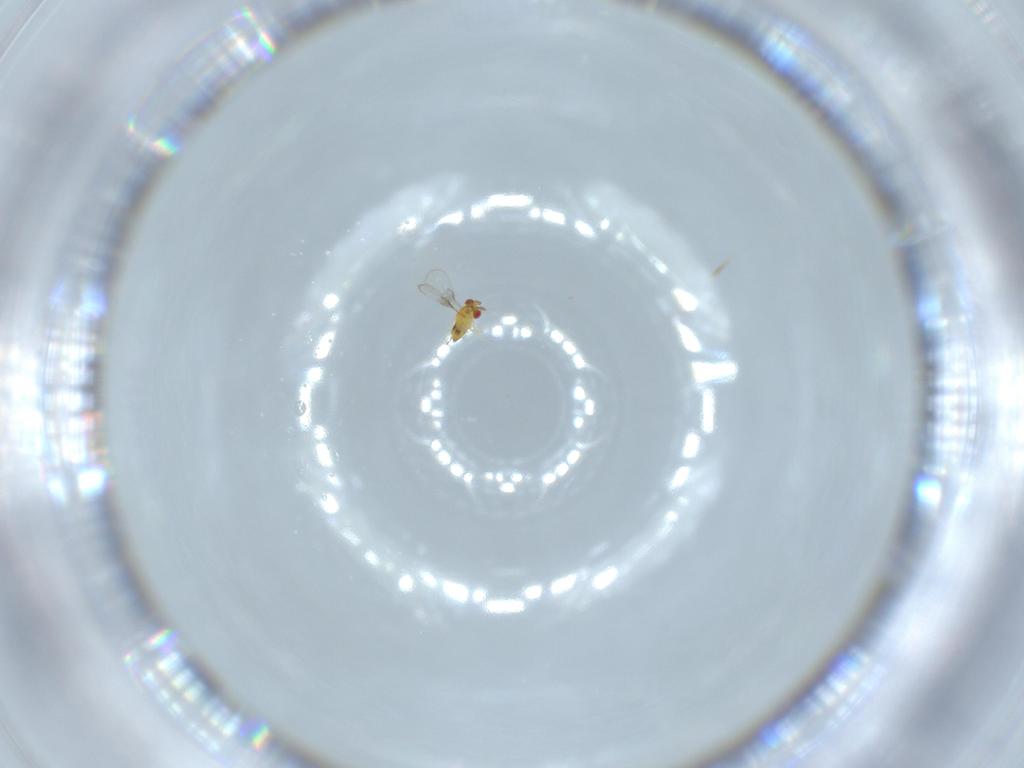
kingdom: Animalia
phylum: Arthropoda
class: Insecta
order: Hymenoptera
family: Trichogrammatidae
